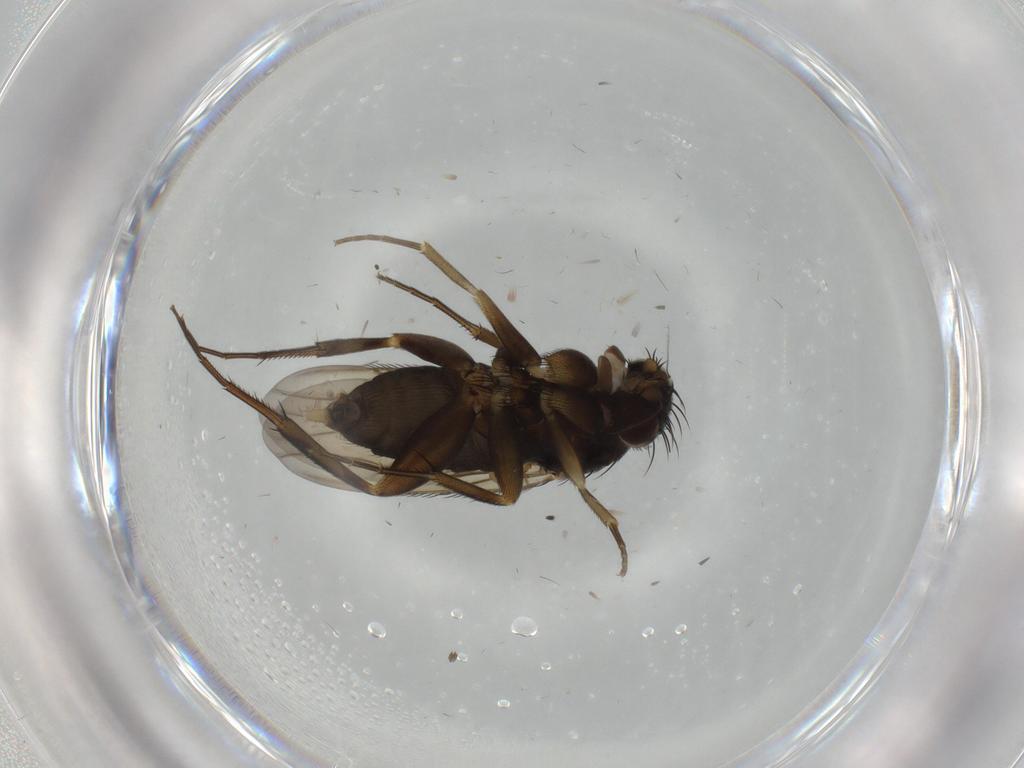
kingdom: Animalia
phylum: Arthropoda
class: Insecta
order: Diptera
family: Phoridae
